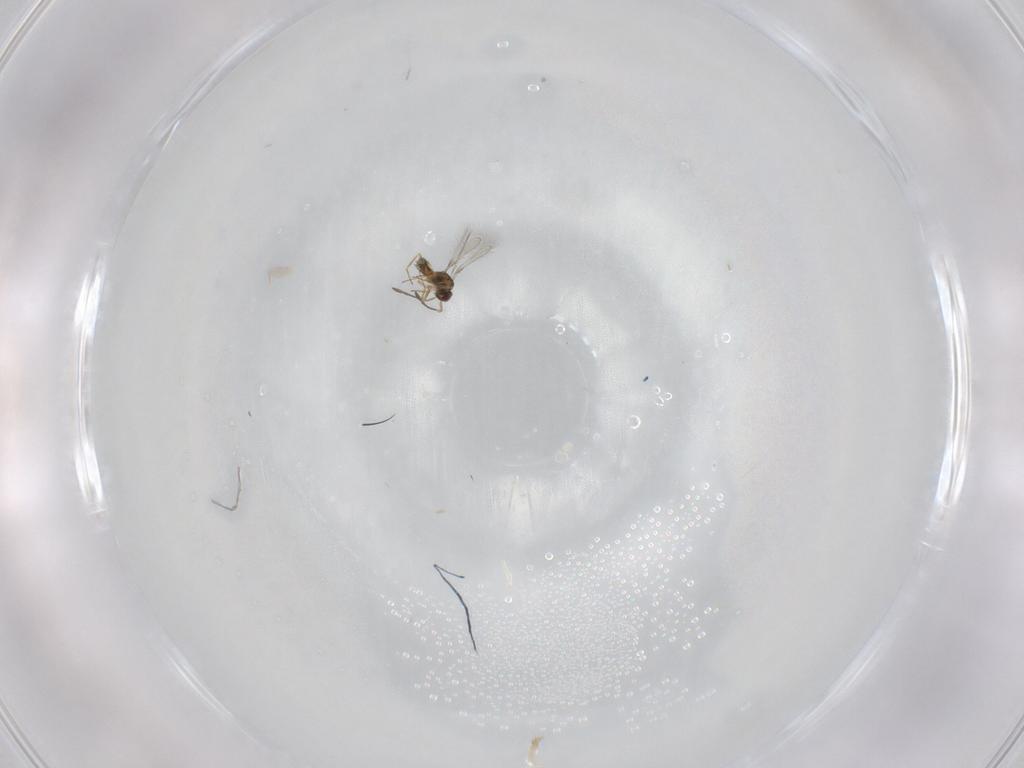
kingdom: Animalia
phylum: Arthropoda
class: Insecta
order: Hymenoptera
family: Mymaridae
